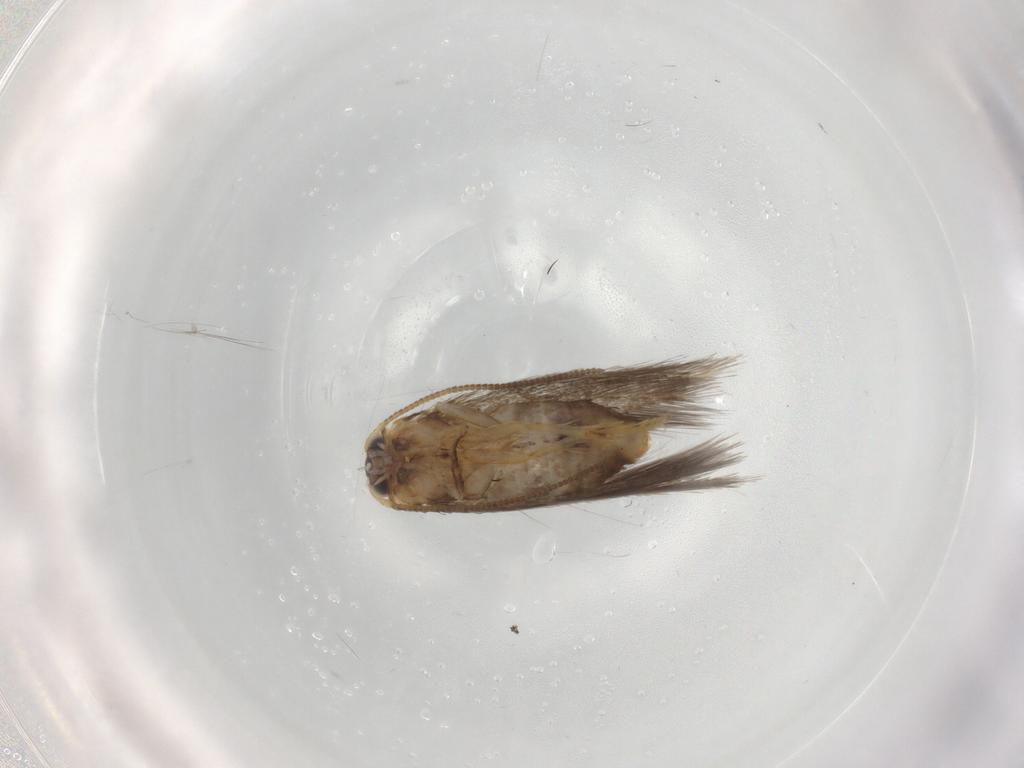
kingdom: Animalia
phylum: Arthropoda
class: Insecta
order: Lepidoptera
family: Nepticulidae
